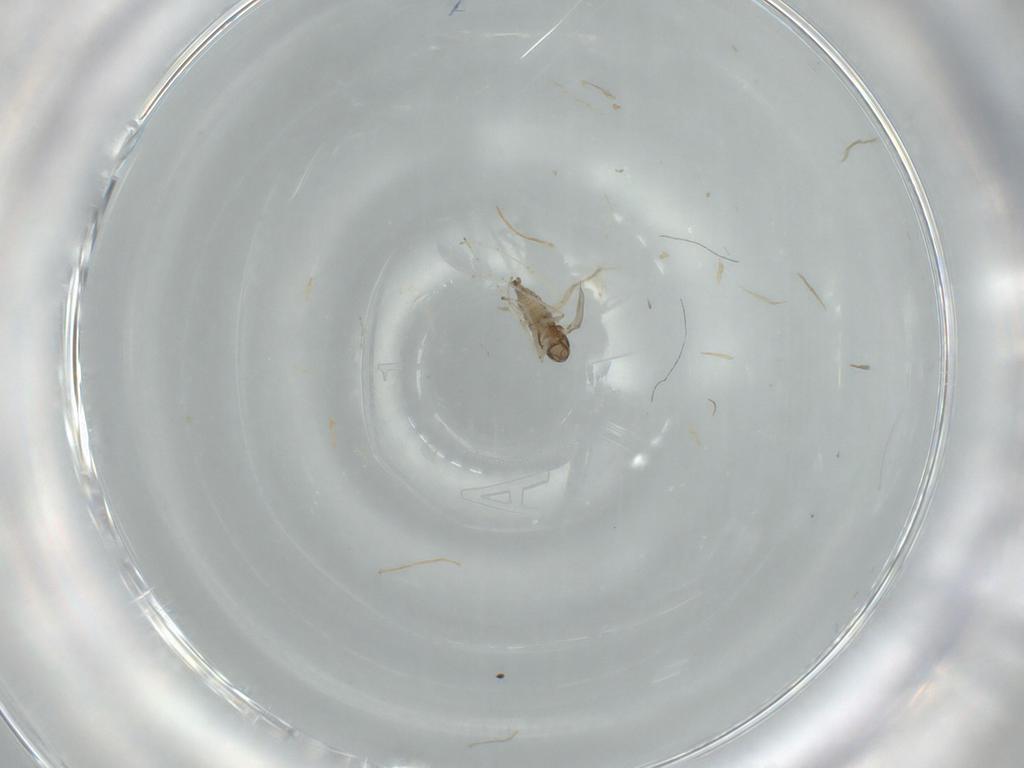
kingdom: Animalia
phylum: Arthropoda
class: Insecta
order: Diptera
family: Cecidomyiidae
